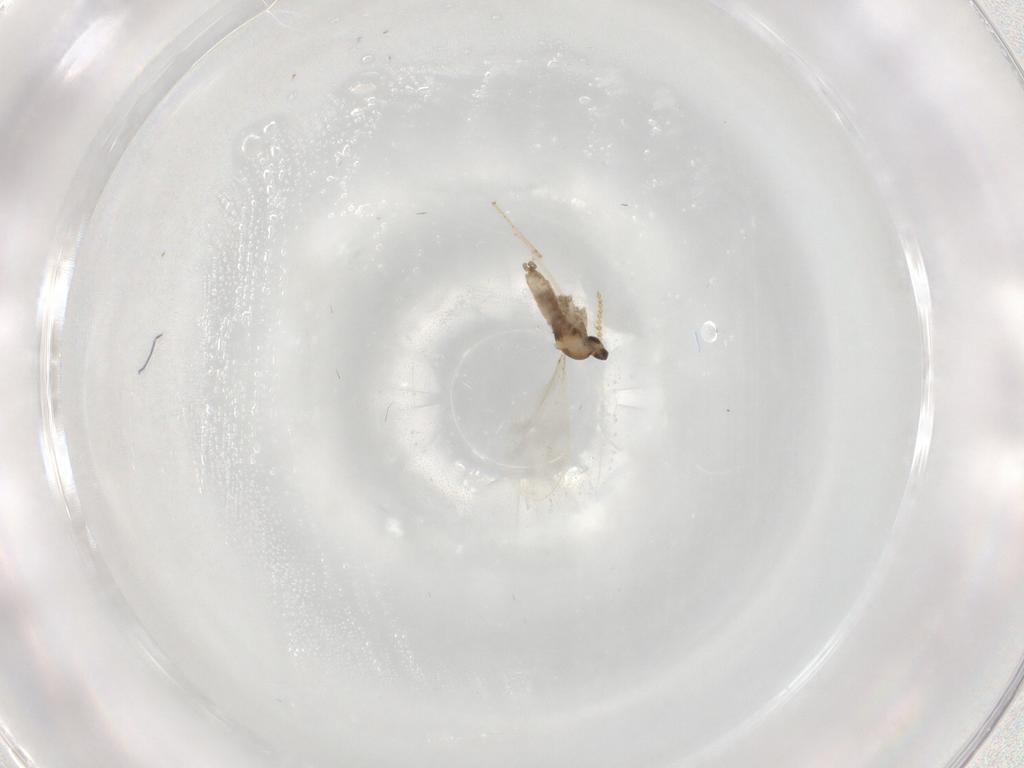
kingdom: Animalia
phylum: Arthropoda
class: Insecta
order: Diptera
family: Cecidomyiidae
